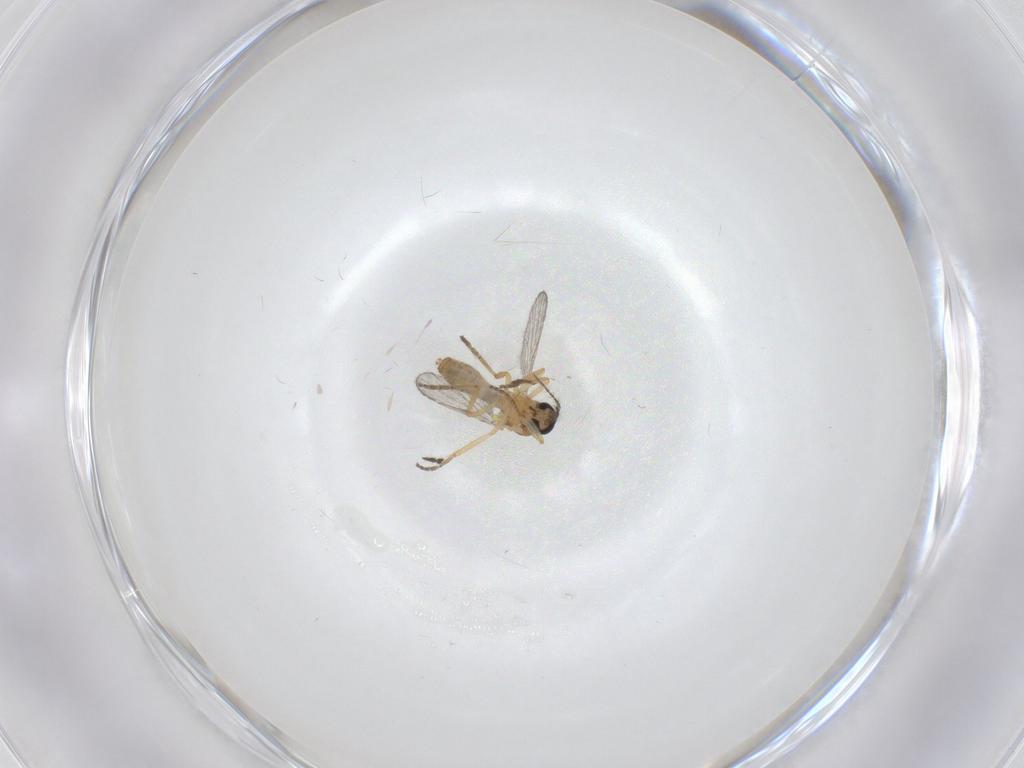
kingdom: Animalia
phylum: Arthropoda
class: Insecta
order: Diptera
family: Ceratopogonidae
